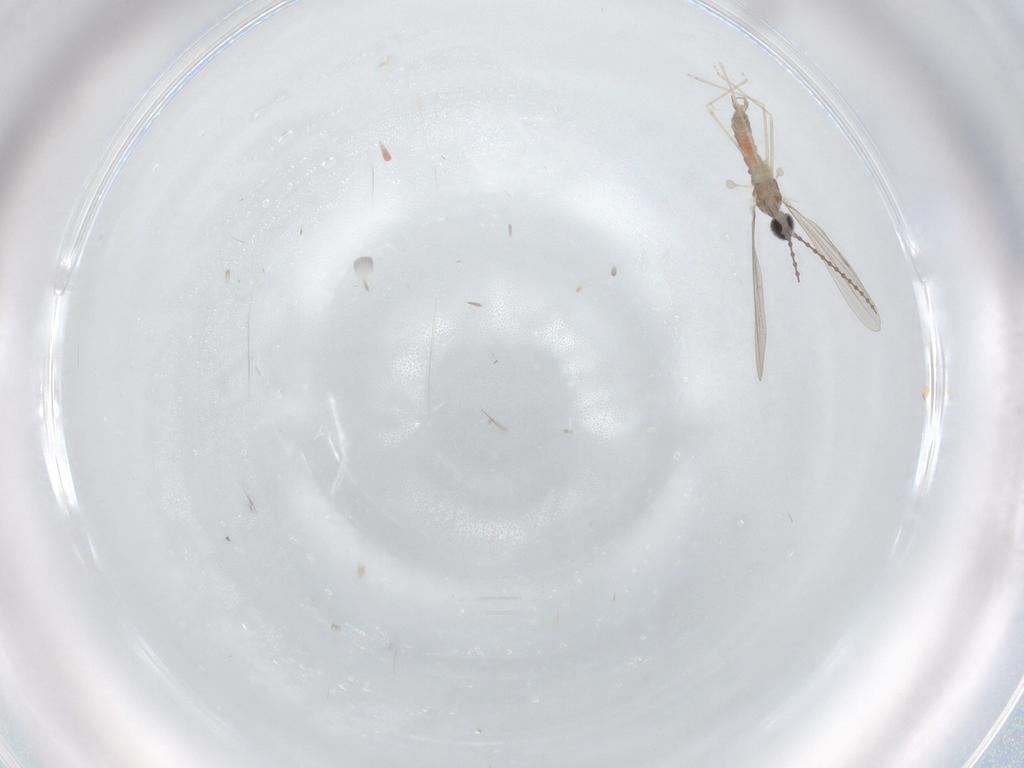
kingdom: Animalia
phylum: Arthropoda
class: Insecta
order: Diptera
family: Cecidomyiidae
